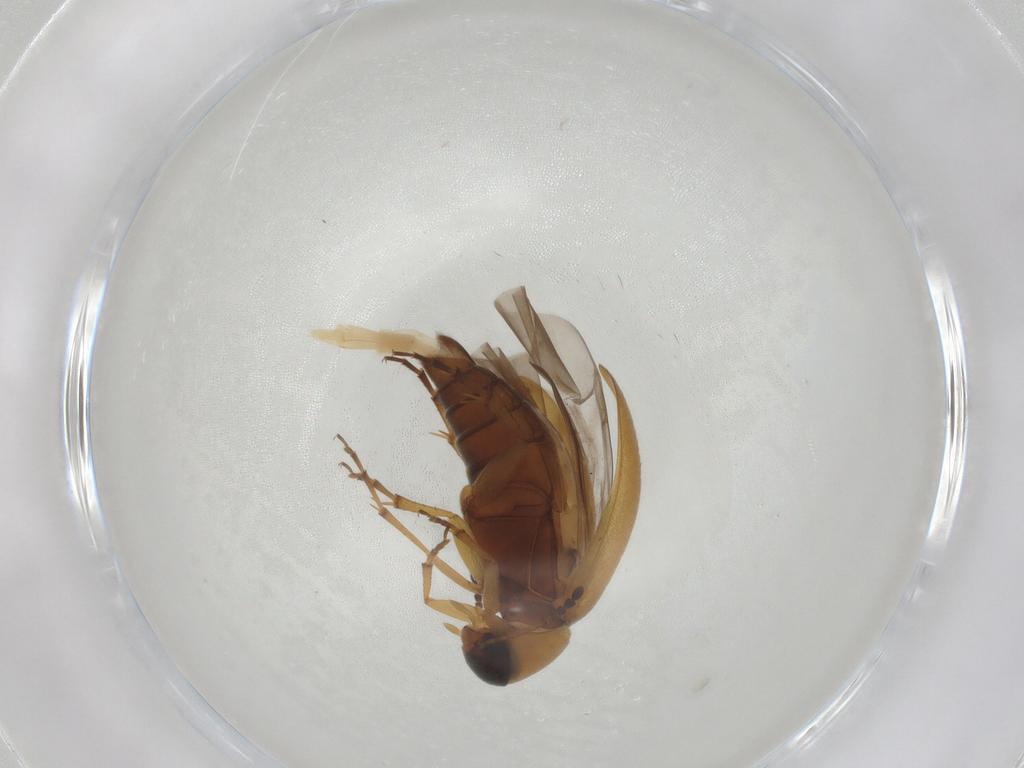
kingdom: Animalia
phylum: Arthropoda
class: Insecta
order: Coleoptera
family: Scraptiidae
